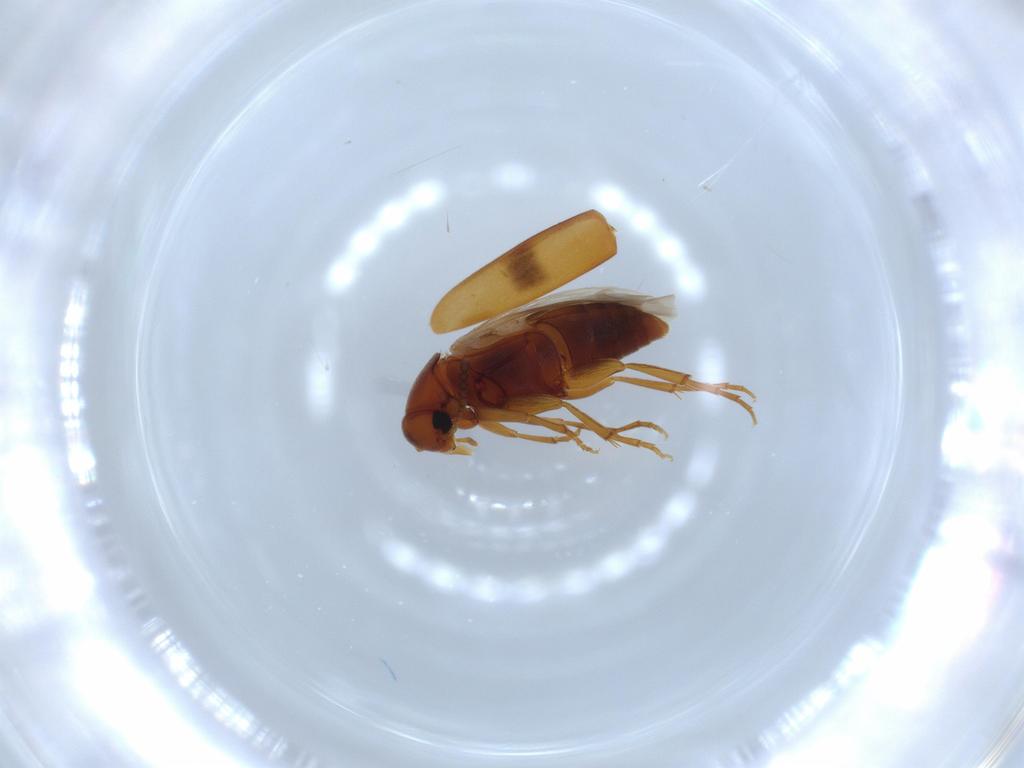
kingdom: Animalia
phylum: Arthropoda
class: Insecta
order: Coleoptera
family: Scraptiidae
